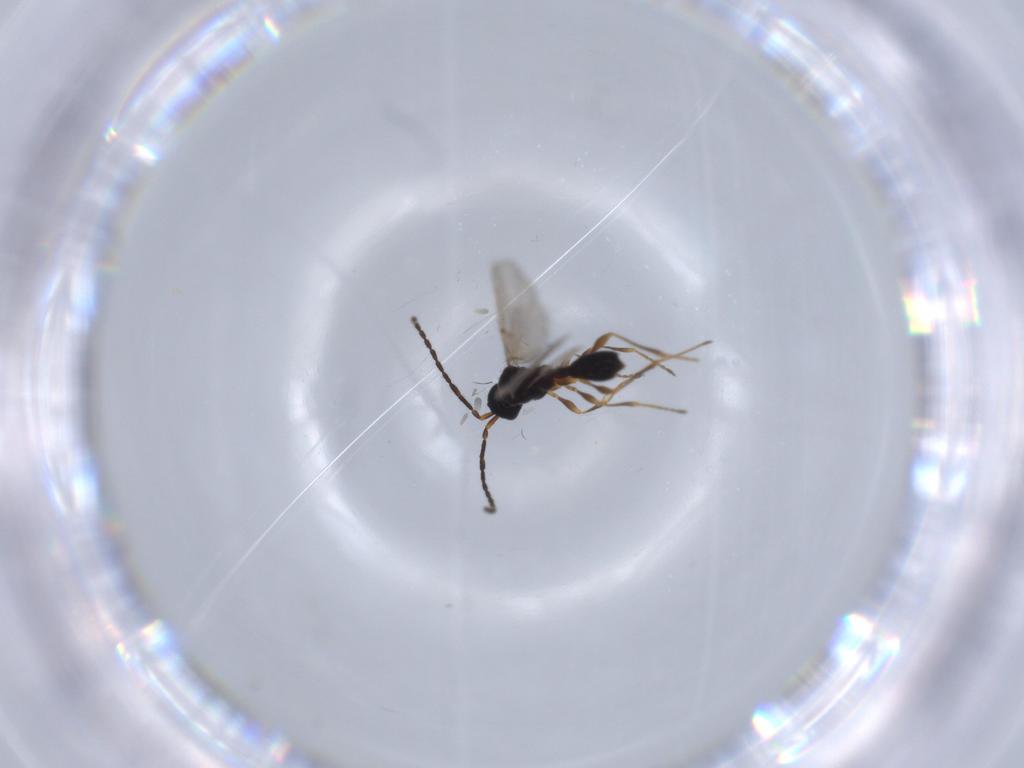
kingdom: Animalia
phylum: Arthropoda
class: Insecta
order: Hymenoptera
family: Diapriidae
